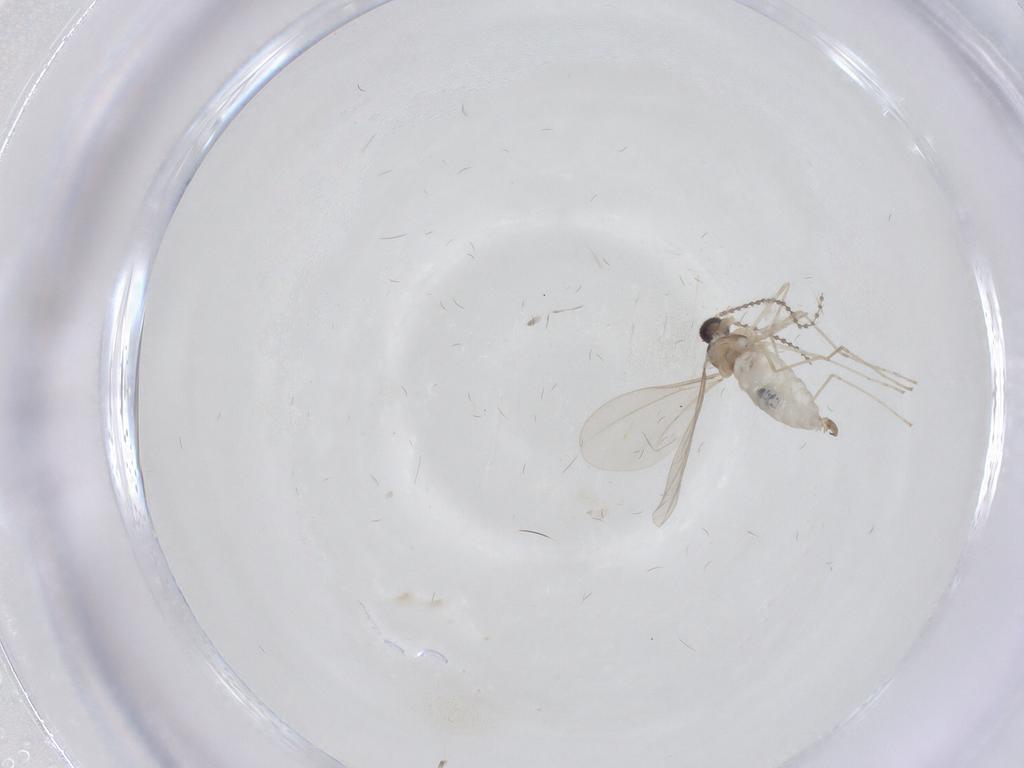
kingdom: Animalia
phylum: Arthropoda
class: Insecta
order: Diptera
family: Chironomidae
